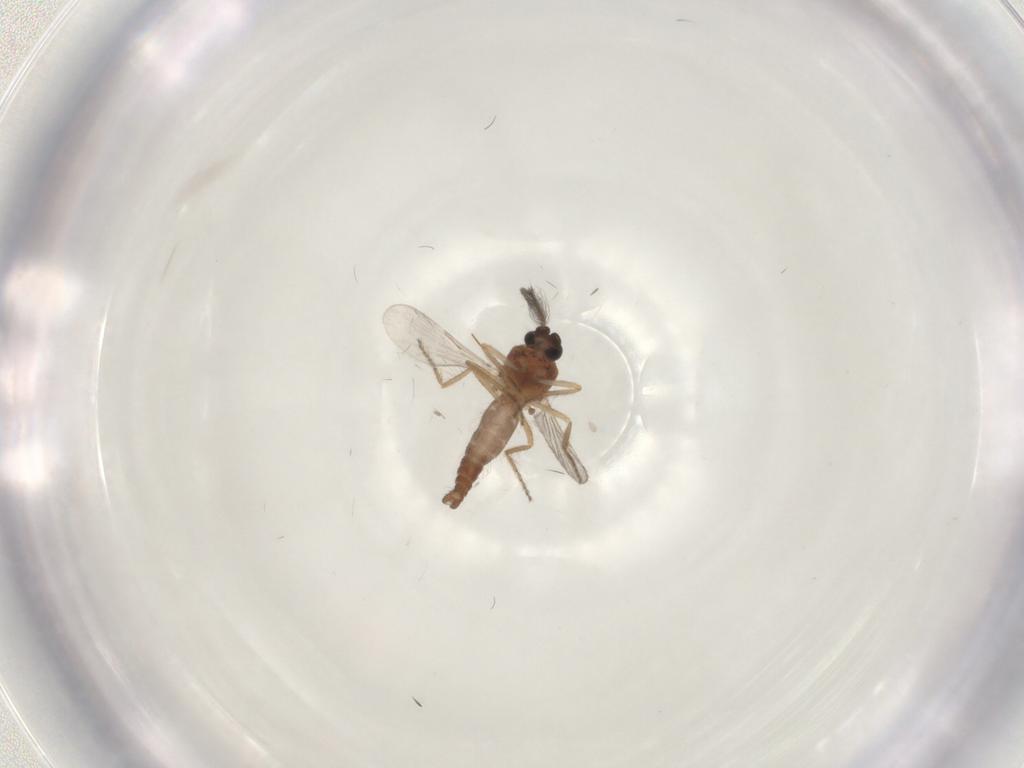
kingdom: Animalia
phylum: Arthropoda
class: Insecta
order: Diptera
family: Ceratopogonidae
